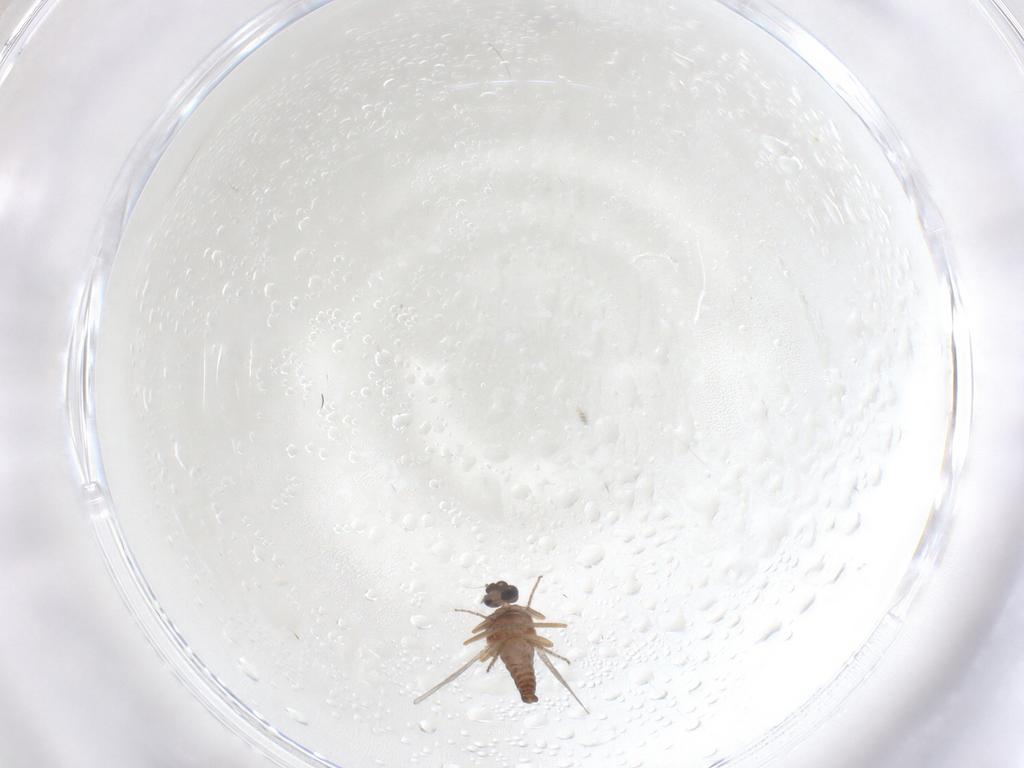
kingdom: Animalia
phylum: Arthropoda
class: Insecta
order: Diptera
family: Ceratopogonidae
